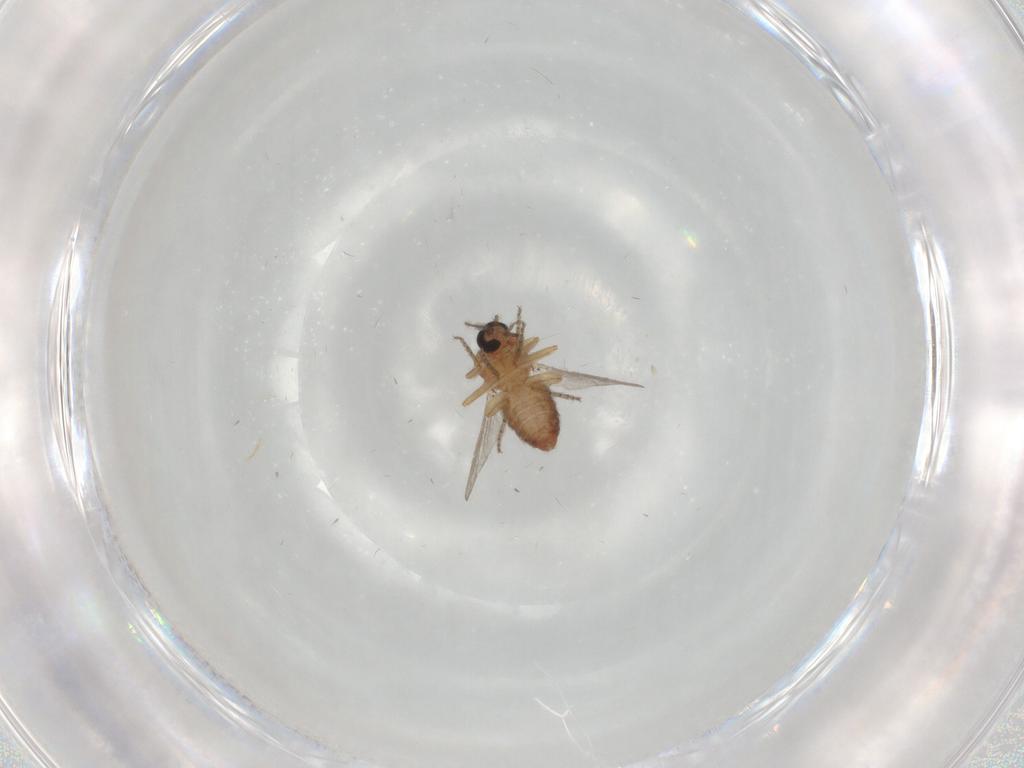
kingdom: Animalia
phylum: Arthropoda
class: Insecta
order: Diptera
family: Ceratopogonidae
